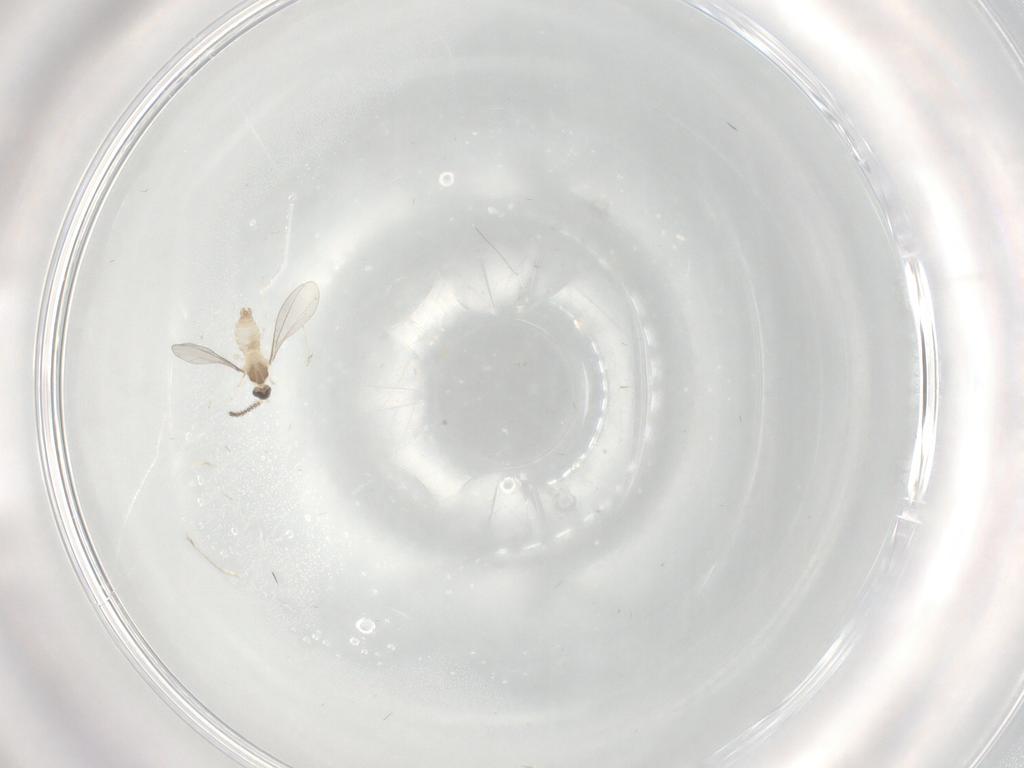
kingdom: Animalia
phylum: Arthropoda
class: Insecta
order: Diptera
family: Cecidomyiidae
